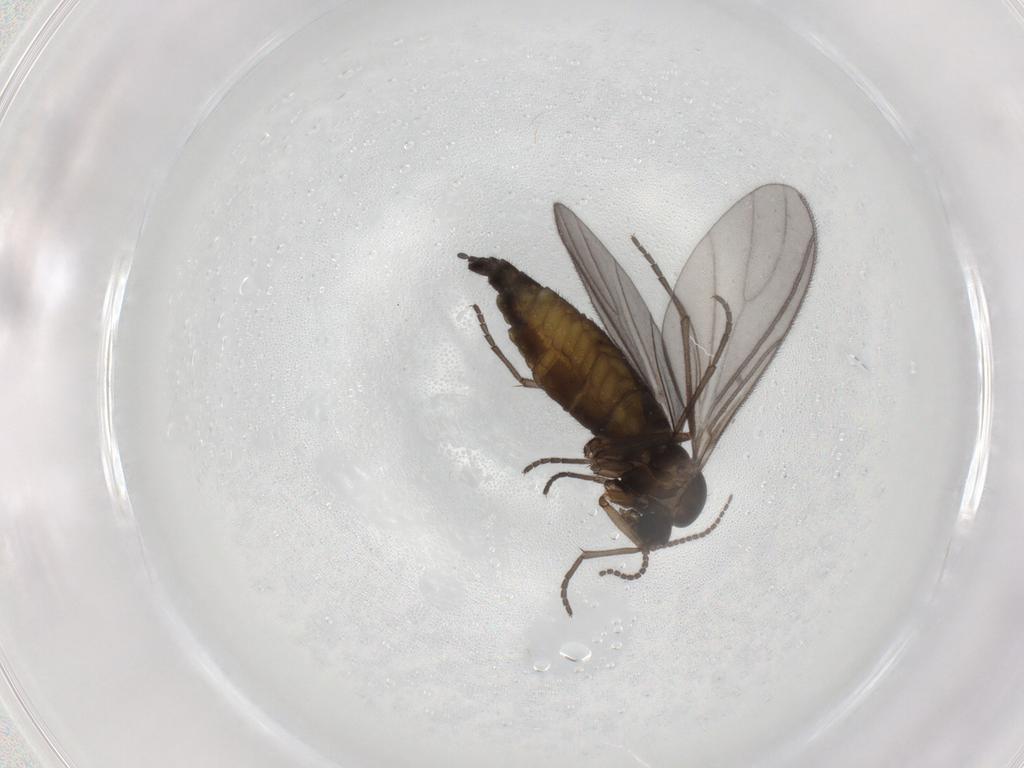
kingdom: Animalia
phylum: Arthropoda
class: Insecta
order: Diptera
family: Sciaridae
